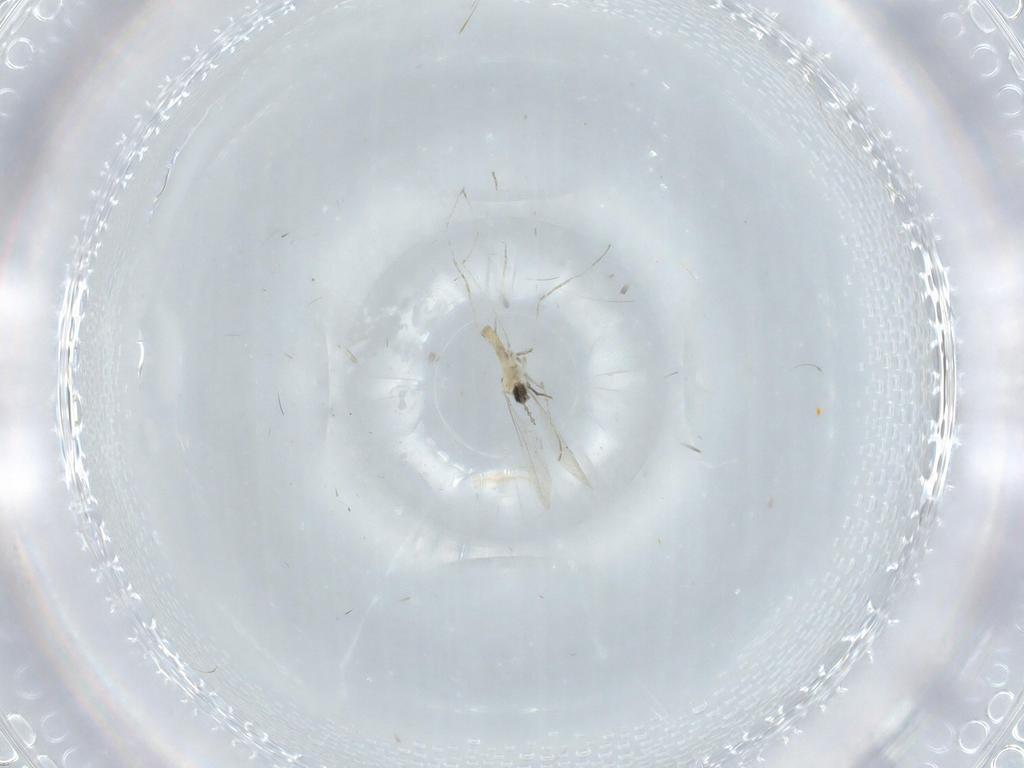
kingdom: Animalia
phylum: Arthropoda
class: Insecta
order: Diptera
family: Cecidomyiidae
